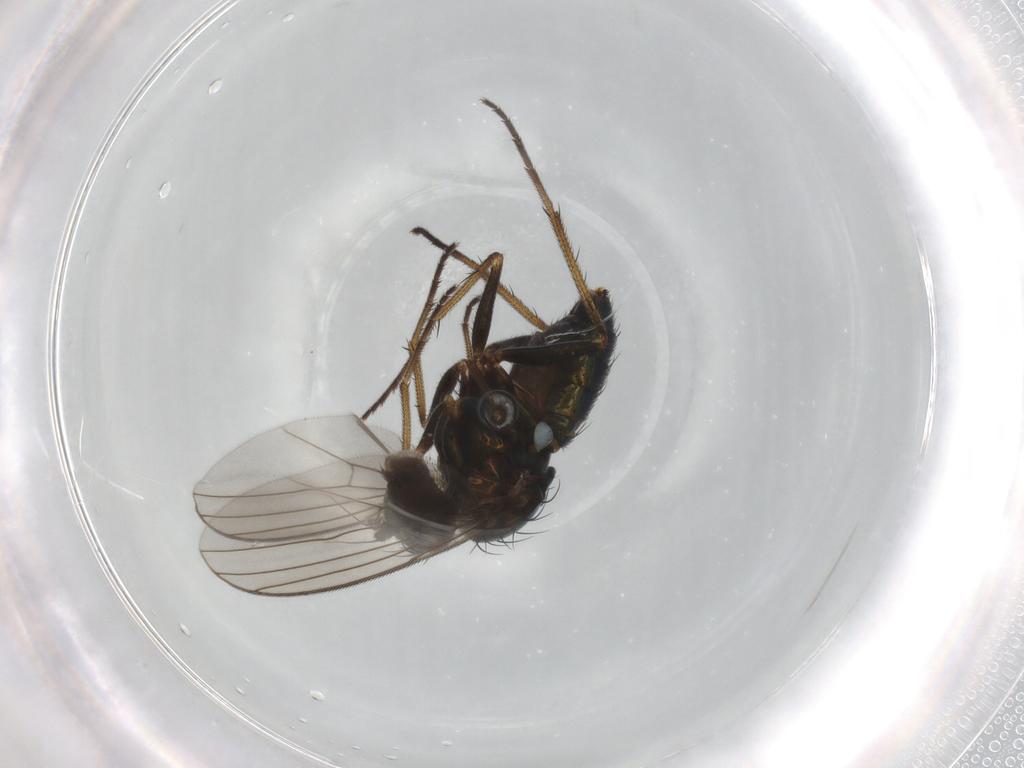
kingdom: Animalia
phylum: Arthropoda
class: Insecta
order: Diptera
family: Dolichopodidae
